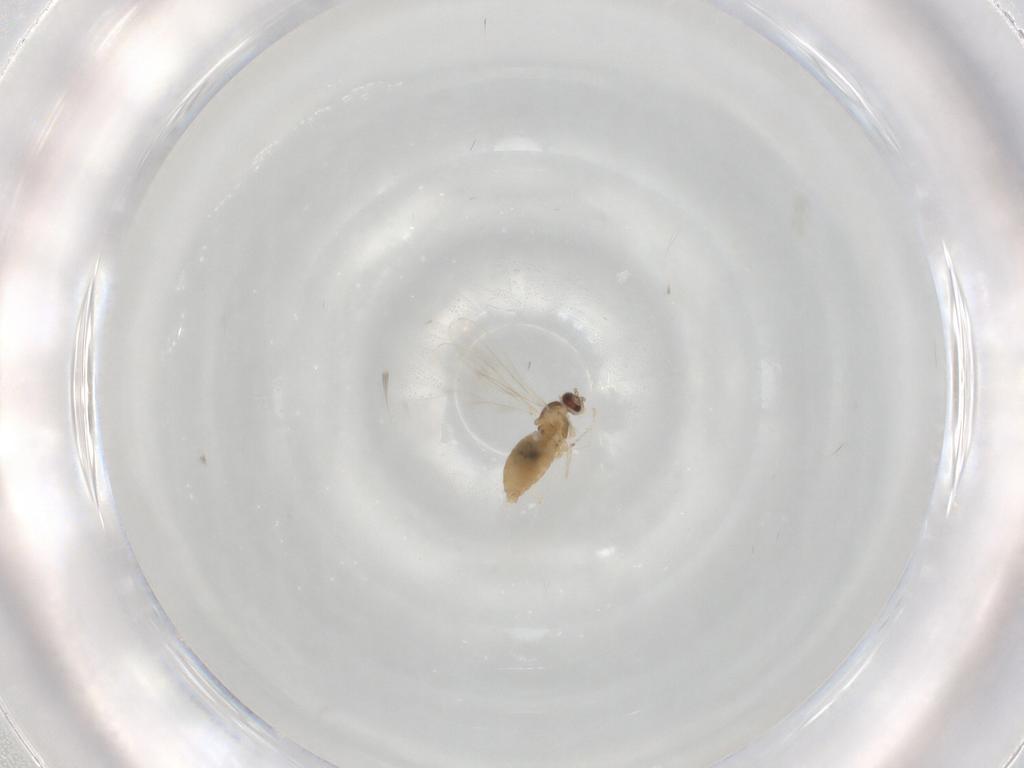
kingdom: Animalia
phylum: Arthropoda
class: Insecta
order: Diptera
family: Cecidomyiidae
